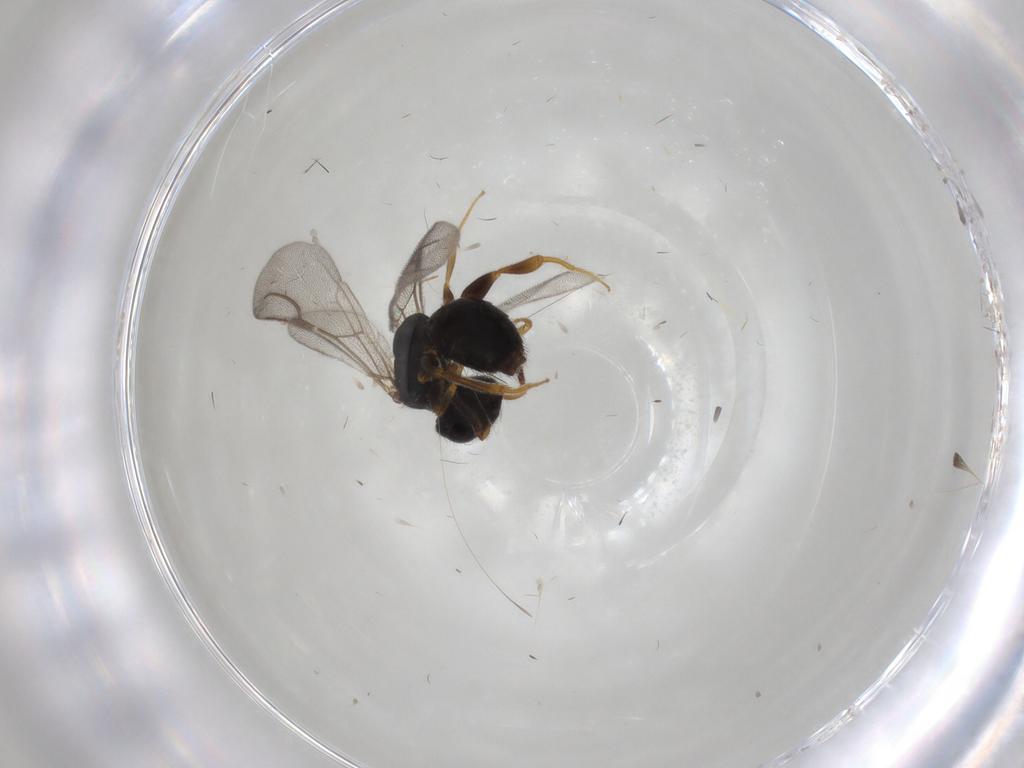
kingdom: Animalia
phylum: Arthropoda
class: Insecta
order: Hymenoptera
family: Bethylidae
